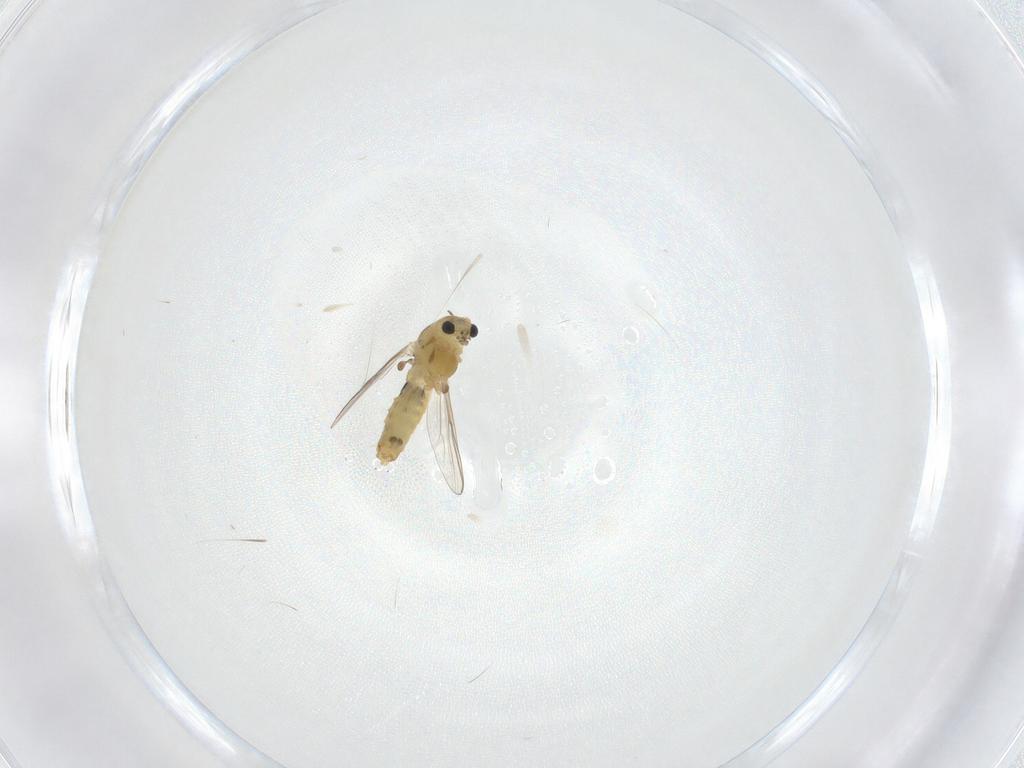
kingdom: Animalia
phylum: Arthropoda
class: Insecta
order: Diptera
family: Chironomidae
